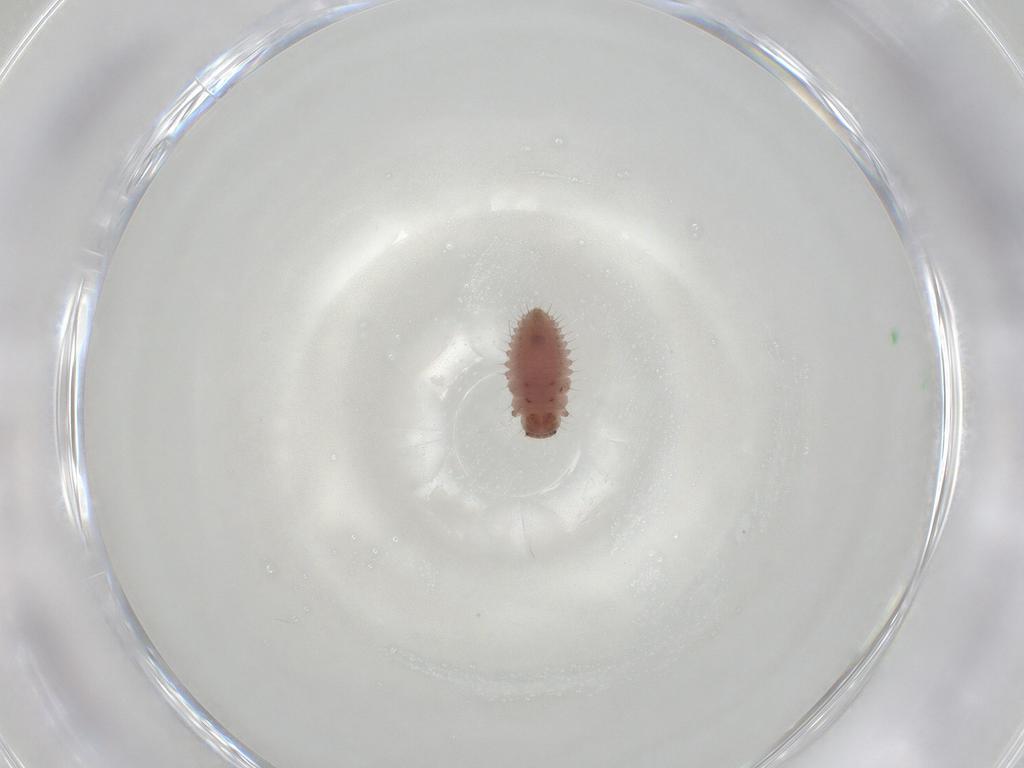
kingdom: Animalia
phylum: Arthropoda
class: Insecta
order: Coleoptera
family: Coccinellidae
